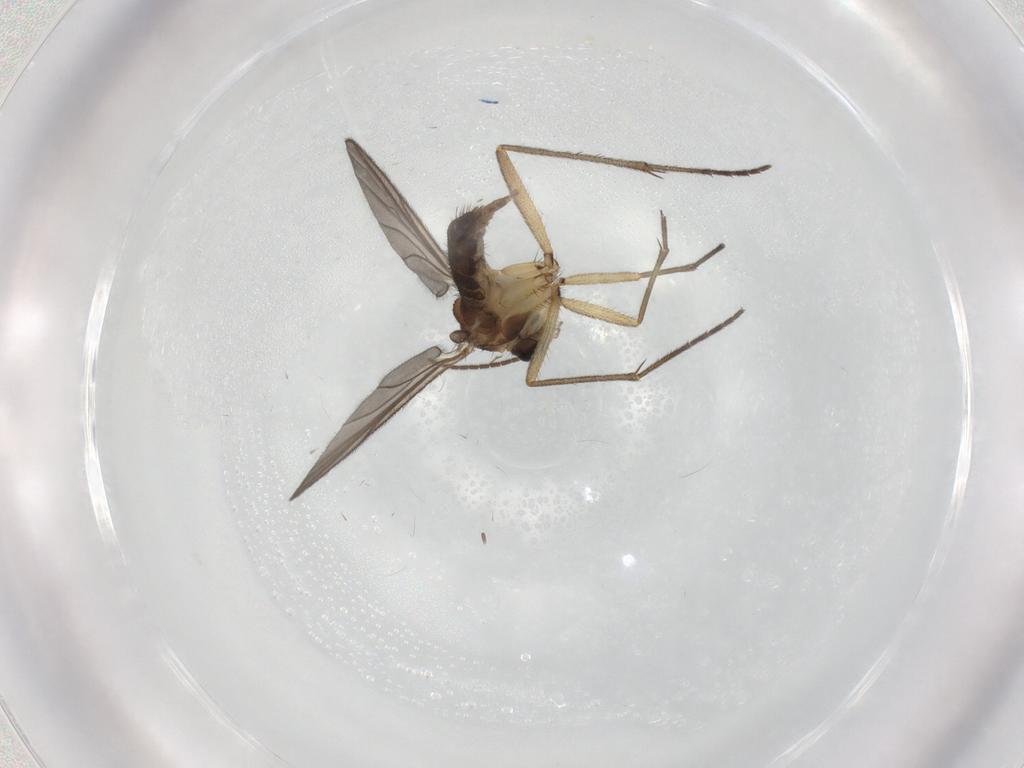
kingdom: Animalia
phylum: Arthropoda
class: Insecta
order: Diptera
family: Sciaridae
